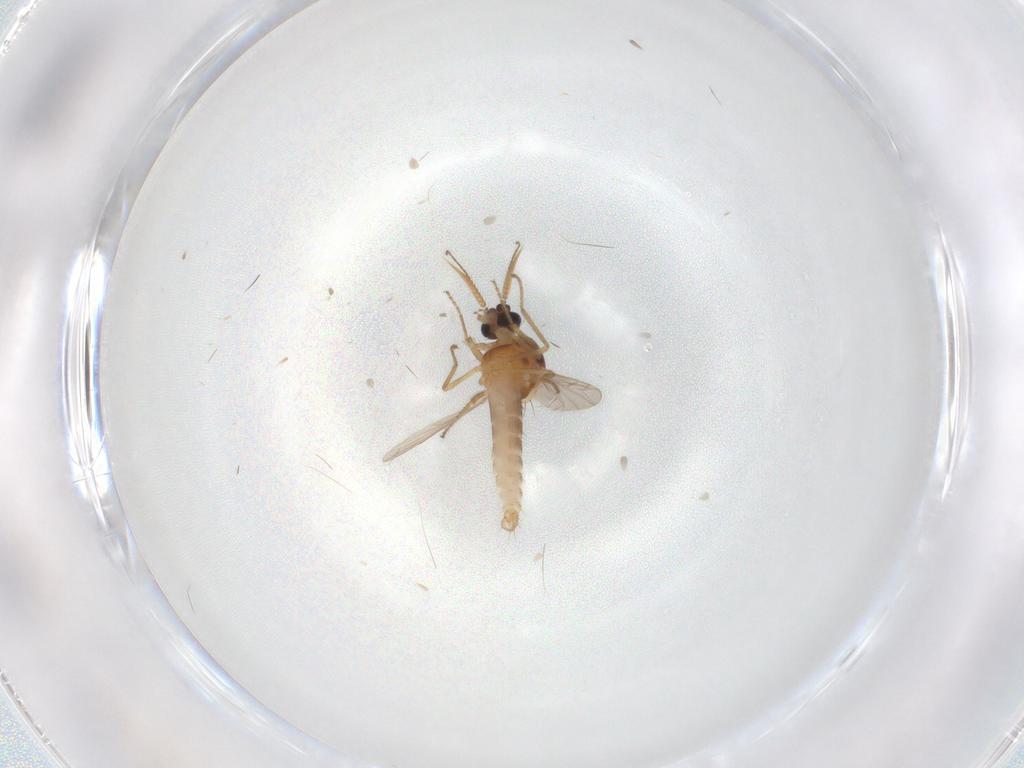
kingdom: Animalia
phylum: Arthropoda
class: Insecta
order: Diptera
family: Ceratopogonidae
